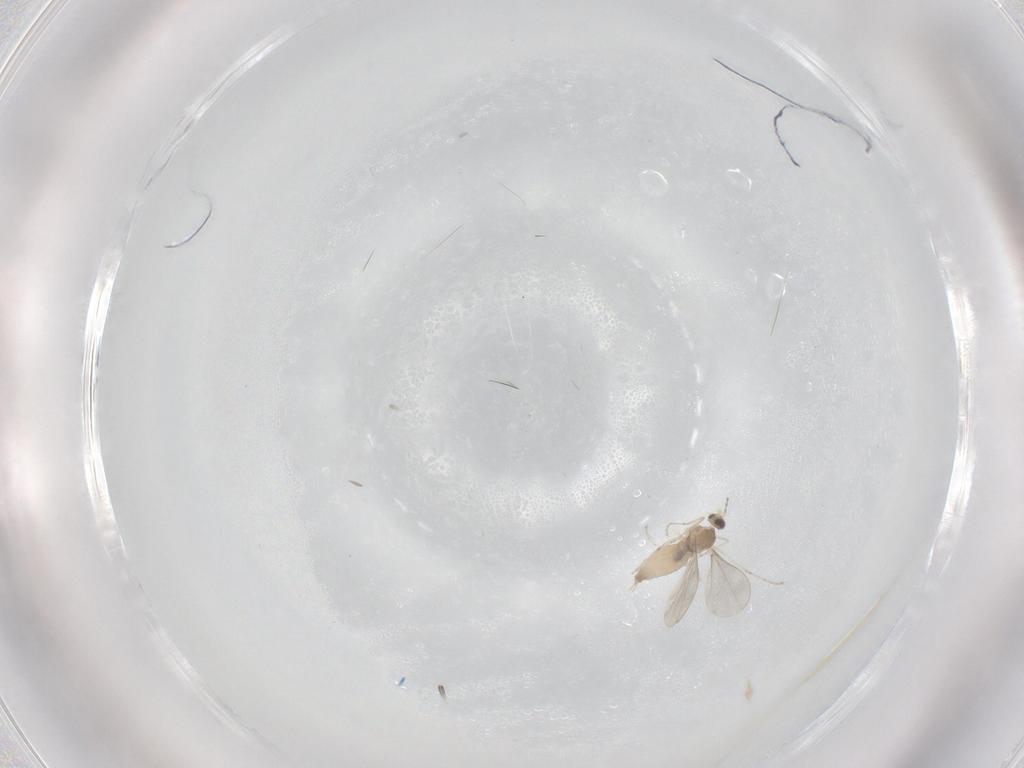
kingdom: Animalia
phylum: Arthropoda
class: Insecta
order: Diptera
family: Cecidomyiidae
